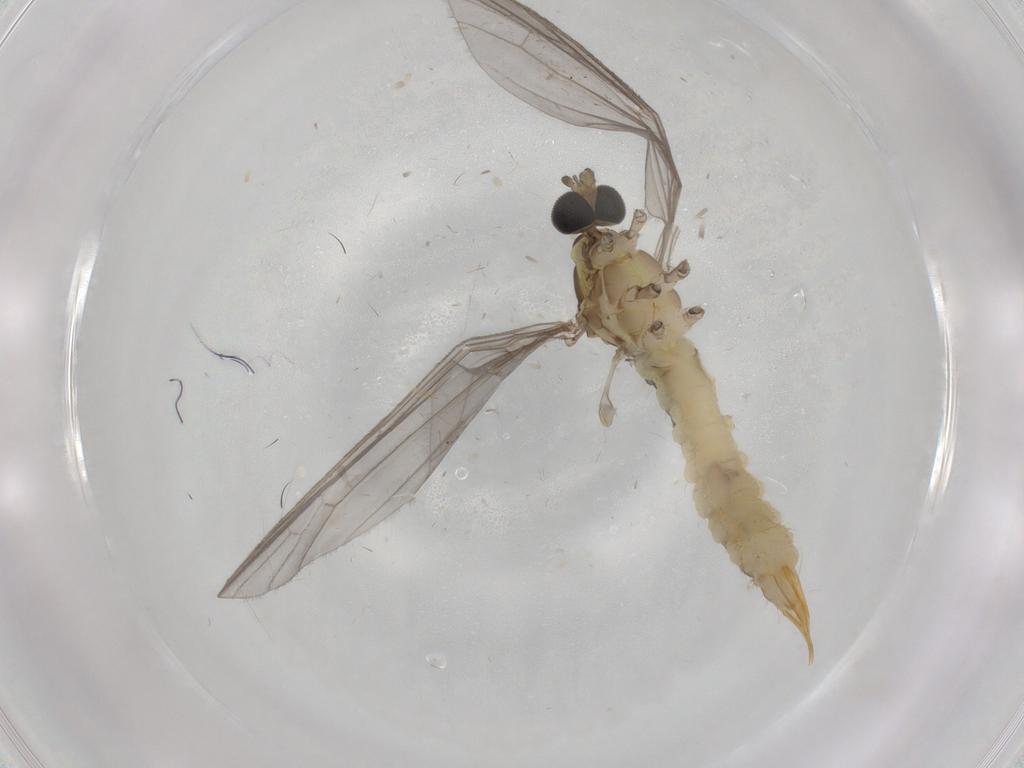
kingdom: Animalia
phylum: Arthropoda
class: Insecta
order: Diptera
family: Limoniidae
